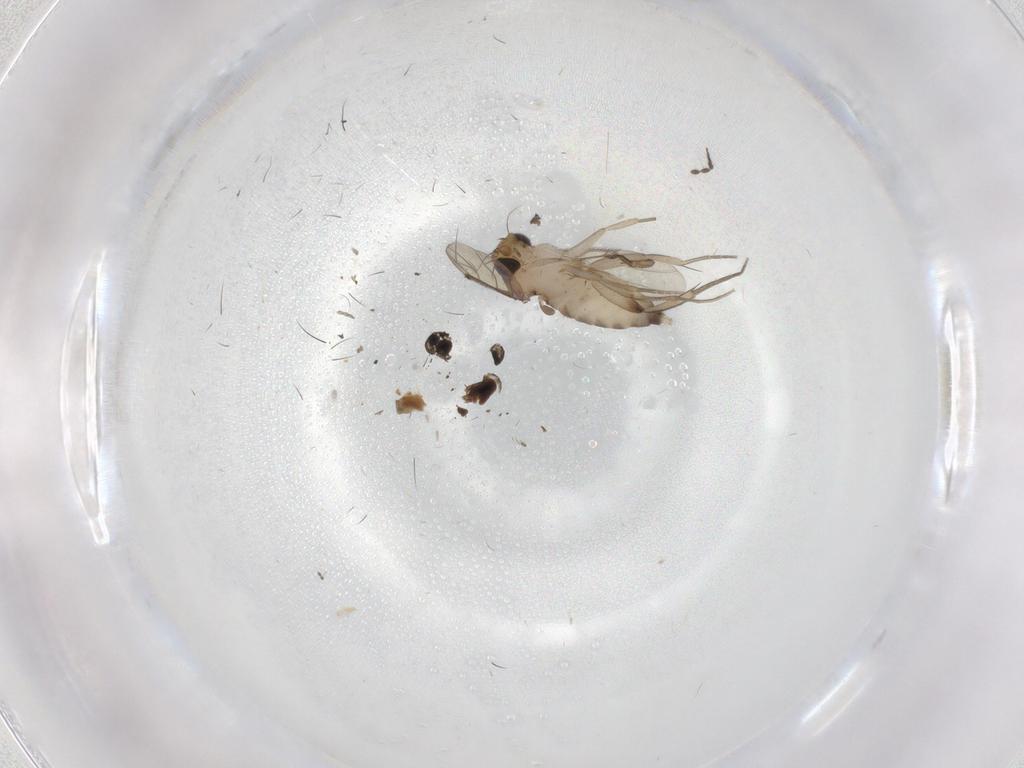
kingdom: Animalia
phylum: Arthropoda
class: Insecta
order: Diptera
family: Phoridae
